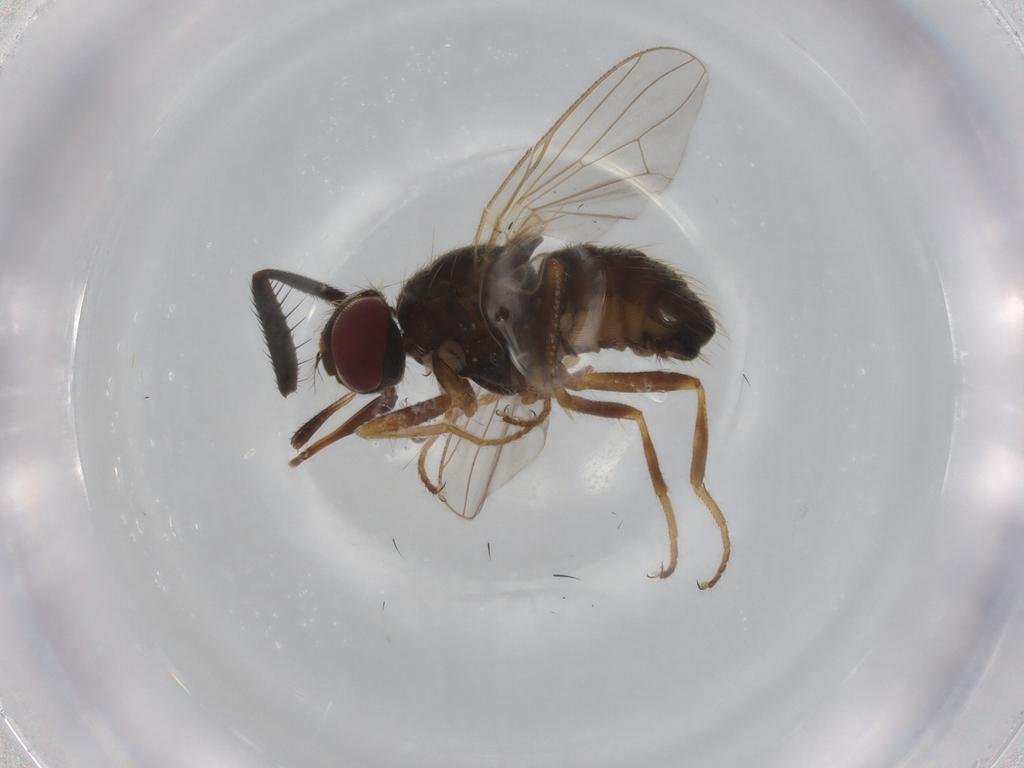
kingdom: Animalia
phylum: Arthropoda
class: Insecta
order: Diptera
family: Muscidae
